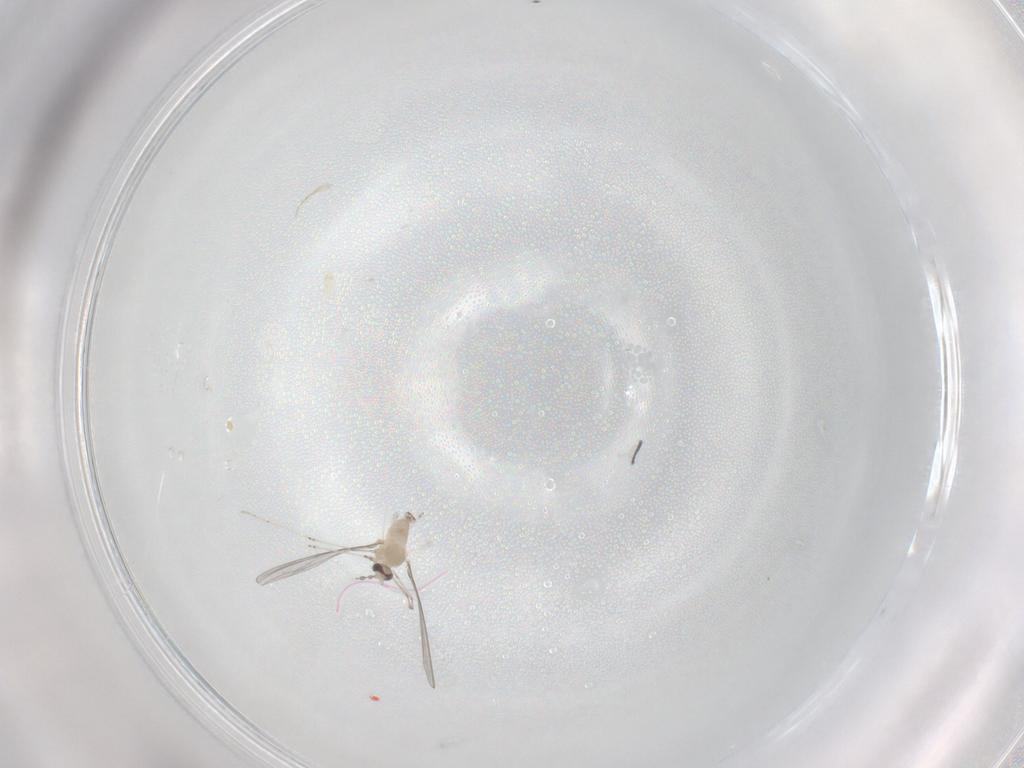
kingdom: Animalia
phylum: Arthropoda
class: Insecta
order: Diptera
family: Cecidomyiidae
